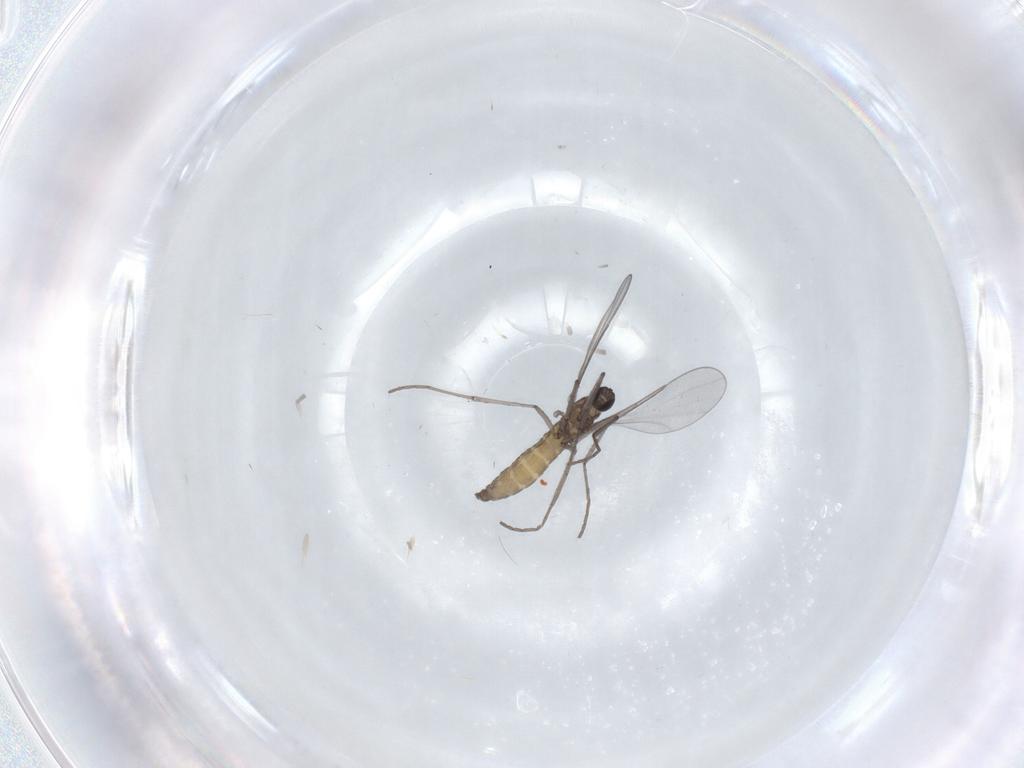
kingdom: Animalia
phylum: Arthropoda
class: Insecta
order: Diptera
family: Cecidomyiidae
